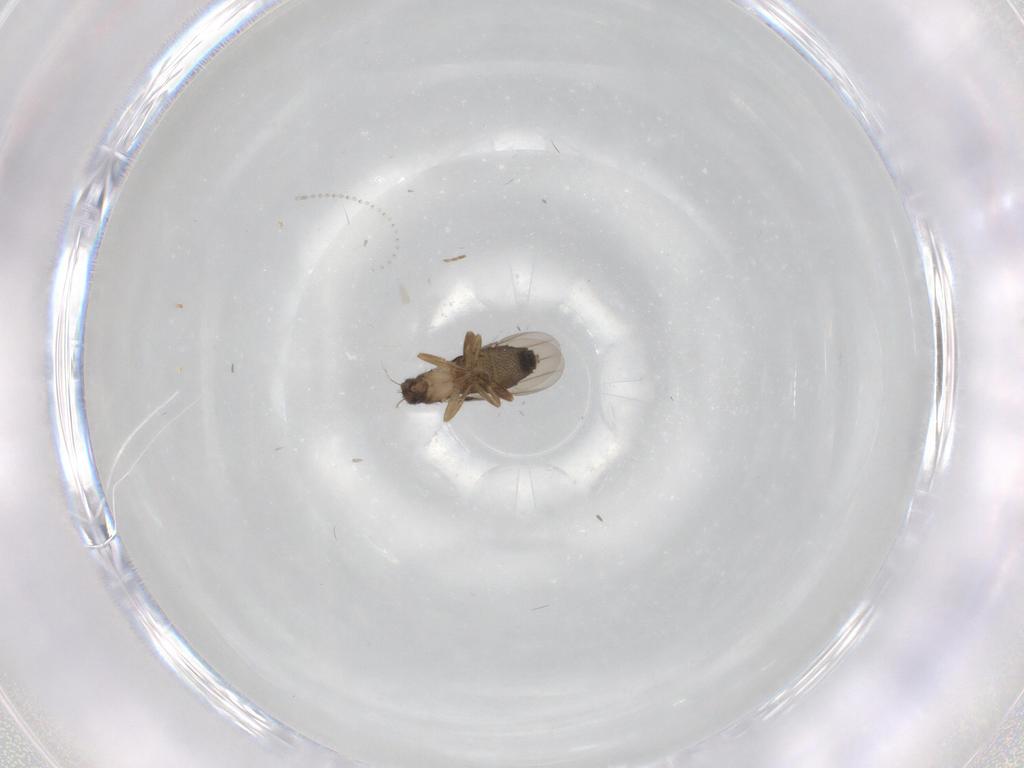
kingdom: Animalia
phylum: Arthropoda
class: Insecta
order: Diptera
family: Phoridae
